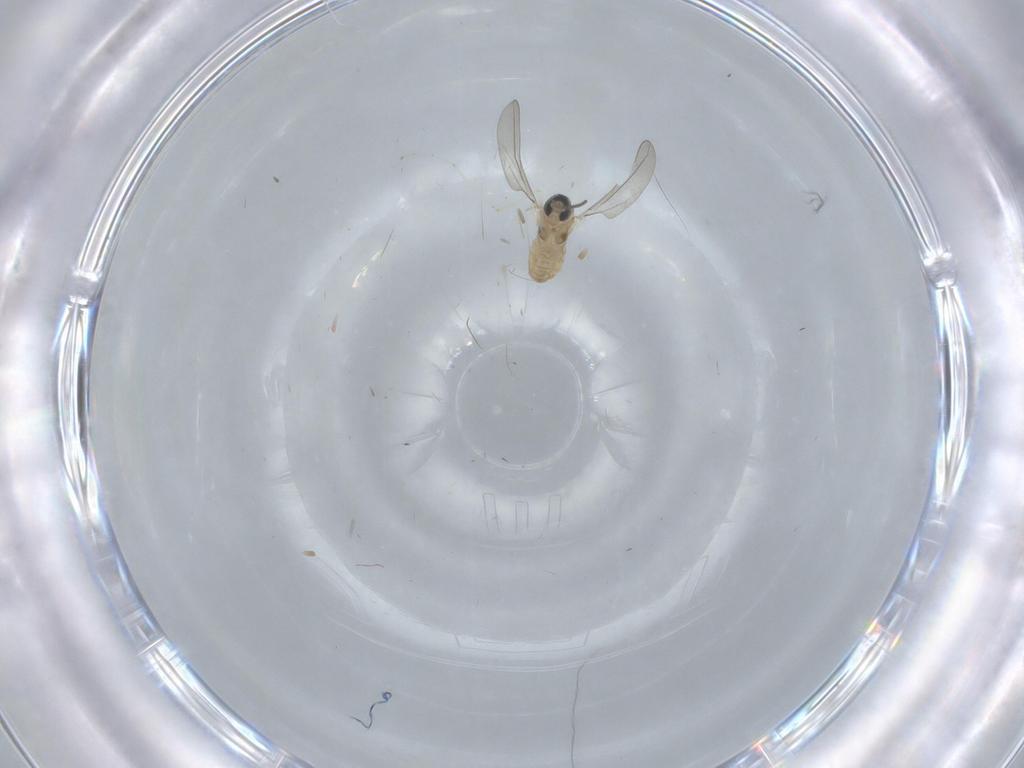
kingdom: Animalia
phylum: Arthropoda
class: Insecta
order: Diptera
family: Cecidomyiidae
